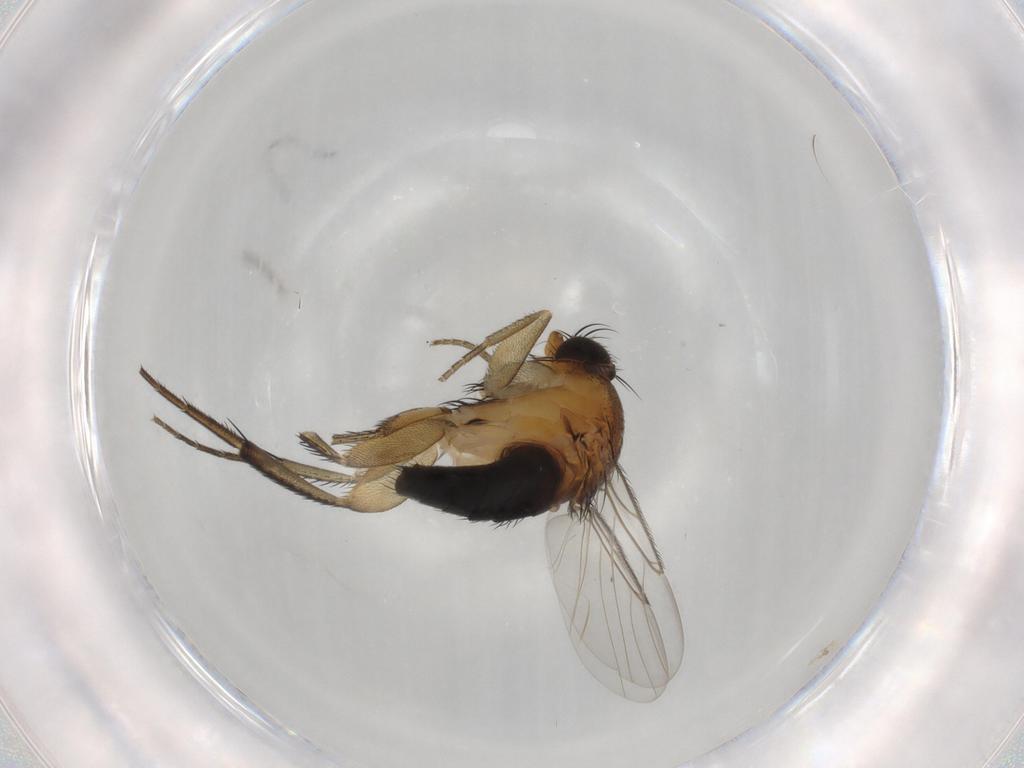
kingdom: Animalia
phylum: Arthropoda
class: Insecta
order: Diptera
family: Phoridae
